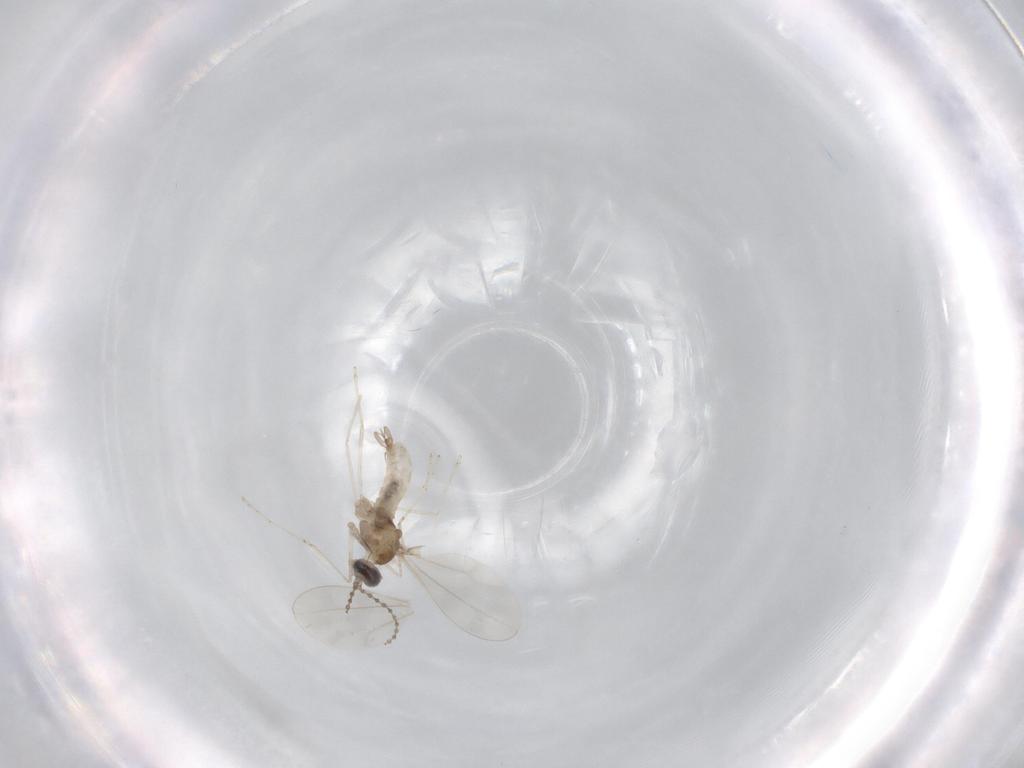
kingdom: Animalia
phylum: Arthropoda
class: Insecta
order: Diptera
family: Cecidomyiidae
